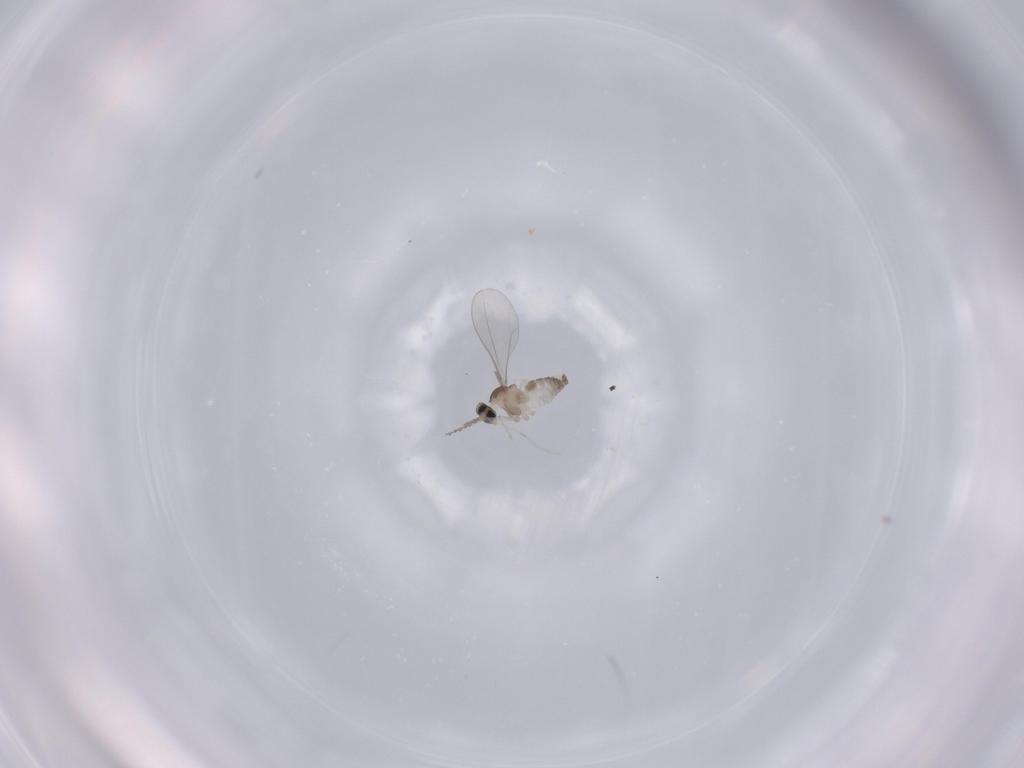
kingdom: Animalia
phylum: Arthropoda
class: Insecta
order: Diptera
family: Cecidomyiidae
